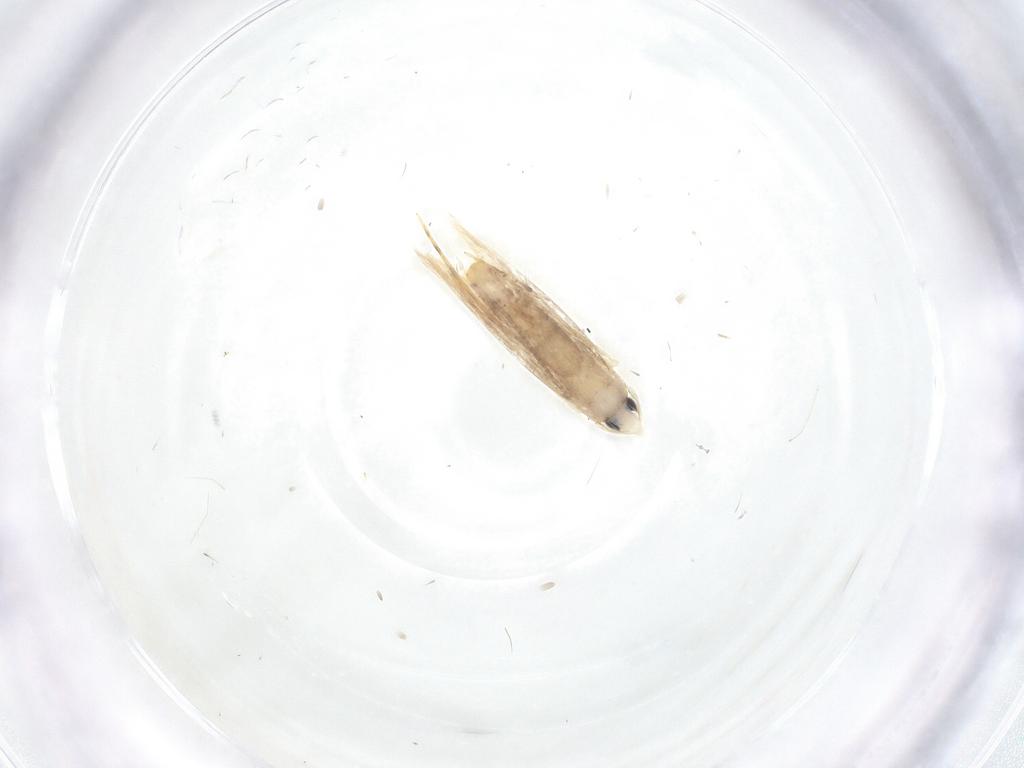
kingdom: Animalia
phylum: Arthropoda
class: Insecta
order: Lepidoptera
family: Tineidae
